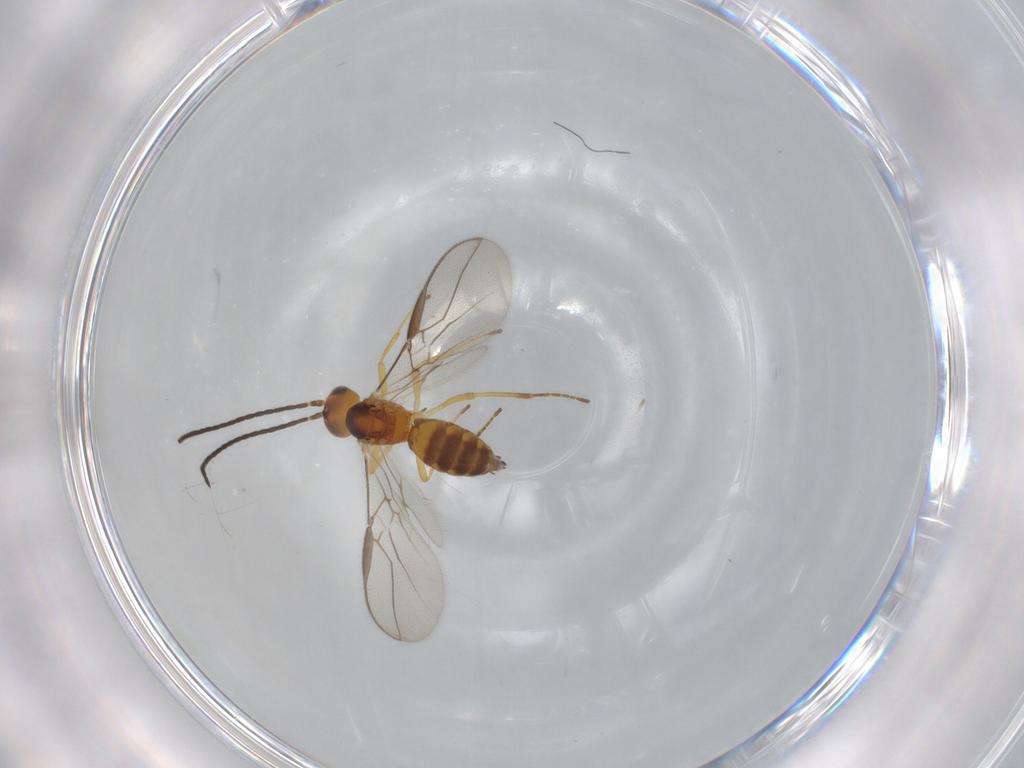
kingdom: Animalia
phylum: Arthropoda
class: Insecta
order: Hymenoptera
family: Braconidae
